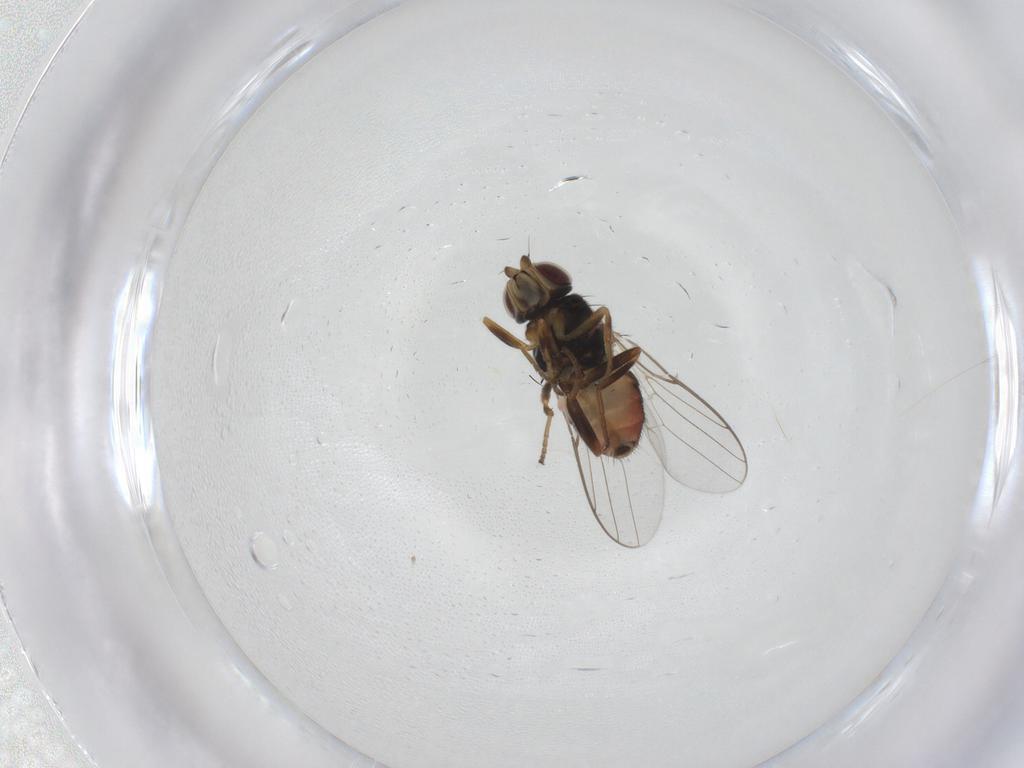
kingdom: Animalia
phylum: Arthropoda
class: Insecta
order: Diptera
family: Chloropidae
